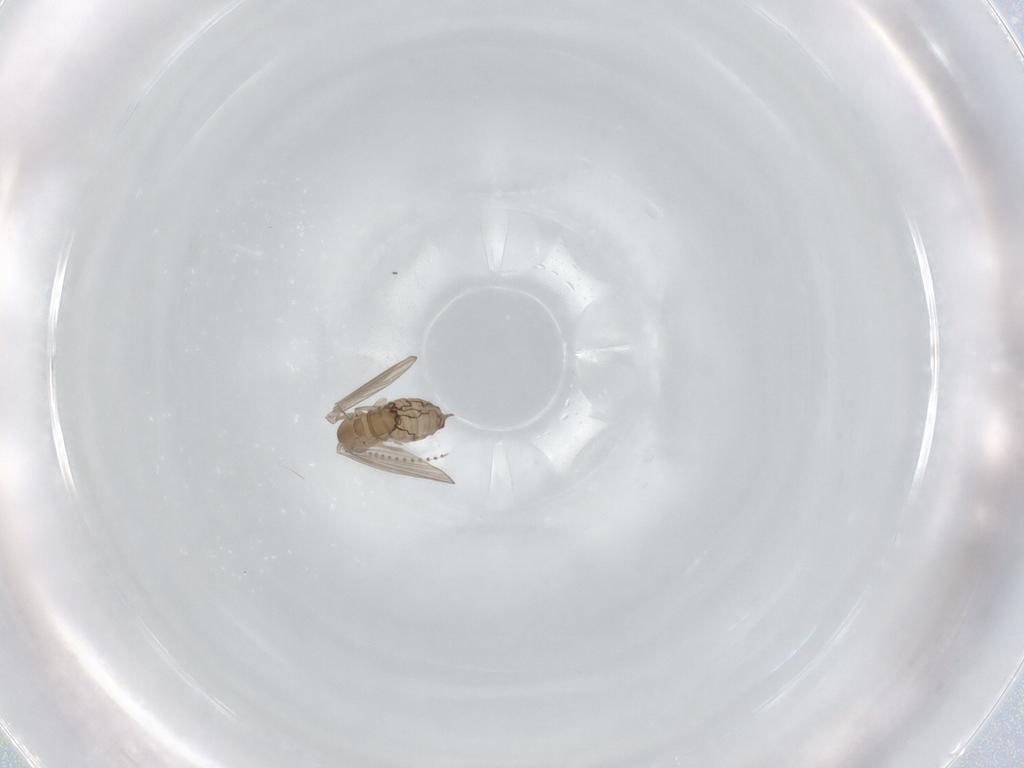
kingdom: Animalia
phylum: Arthropoda
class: Insecta
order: Diptera
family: Psychodidae
